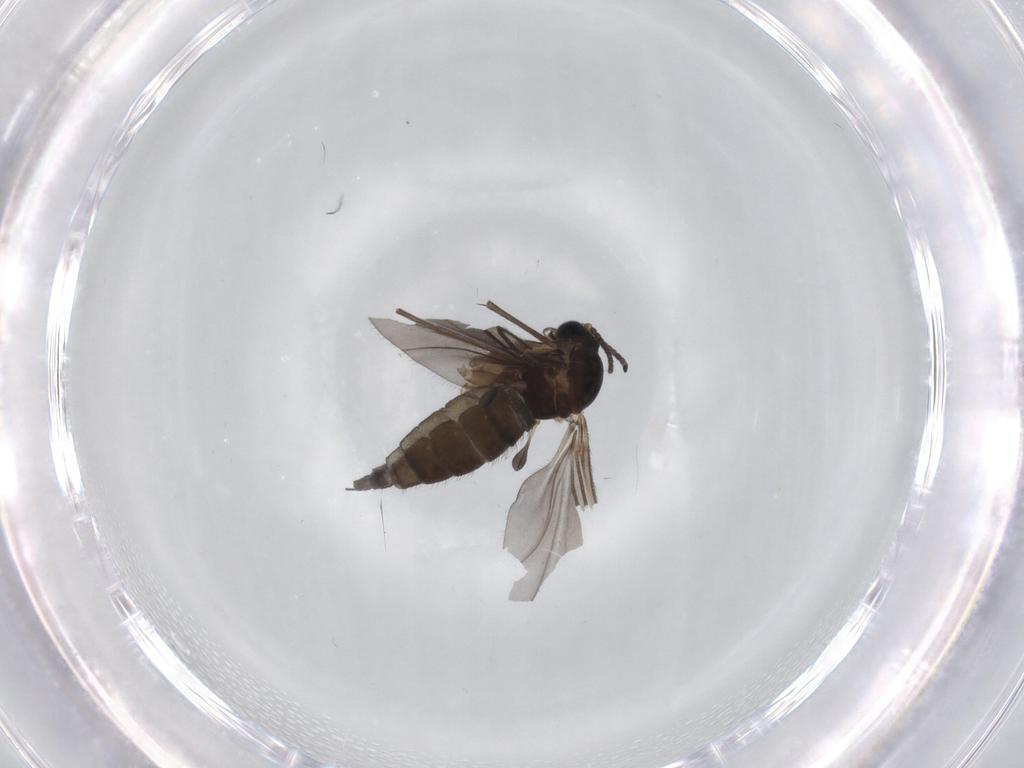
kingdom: Animalia
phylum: Arthropoda
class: Insecta
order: Diptera
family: Sciaridae
